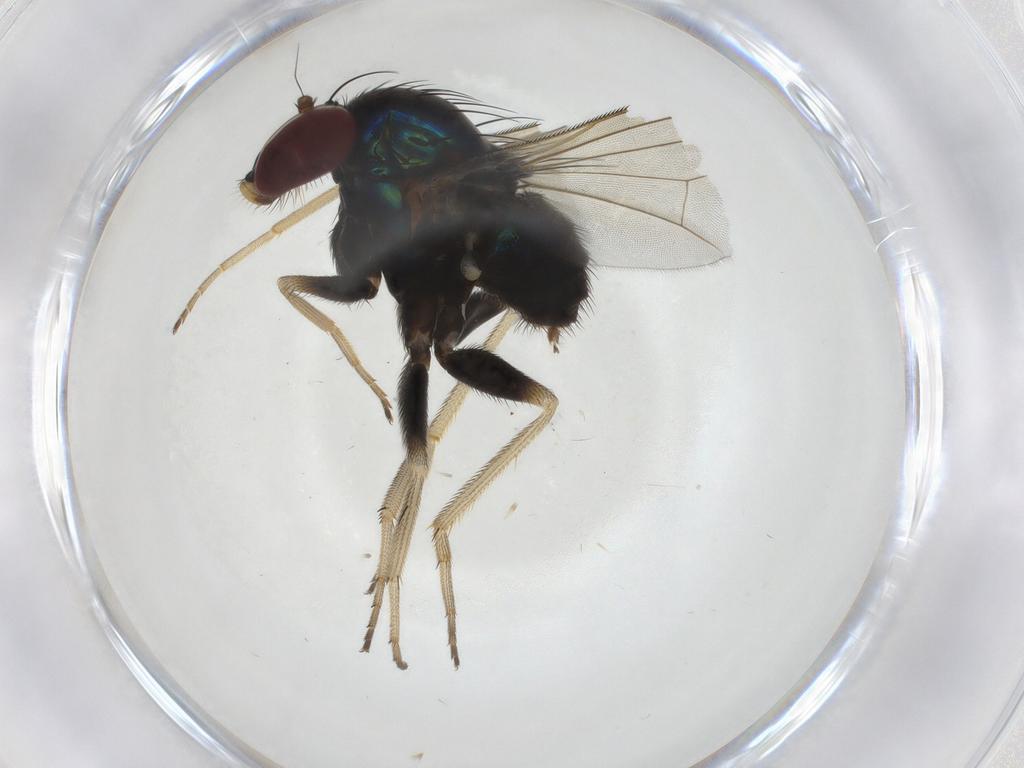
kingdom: Animalia
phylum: Arthropoda
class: Insecta
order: Diptera
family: Dolichopodidae
